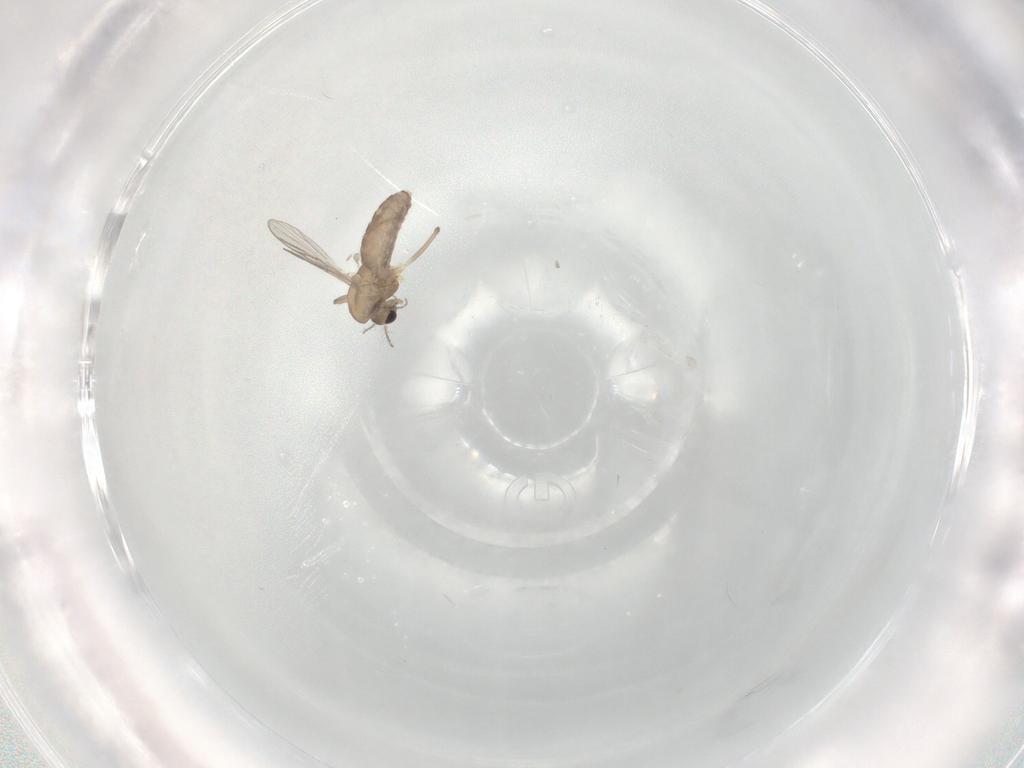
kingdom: Animalia
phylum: Arthropoda
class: Insecta
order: Diptera
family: Chironomidae
